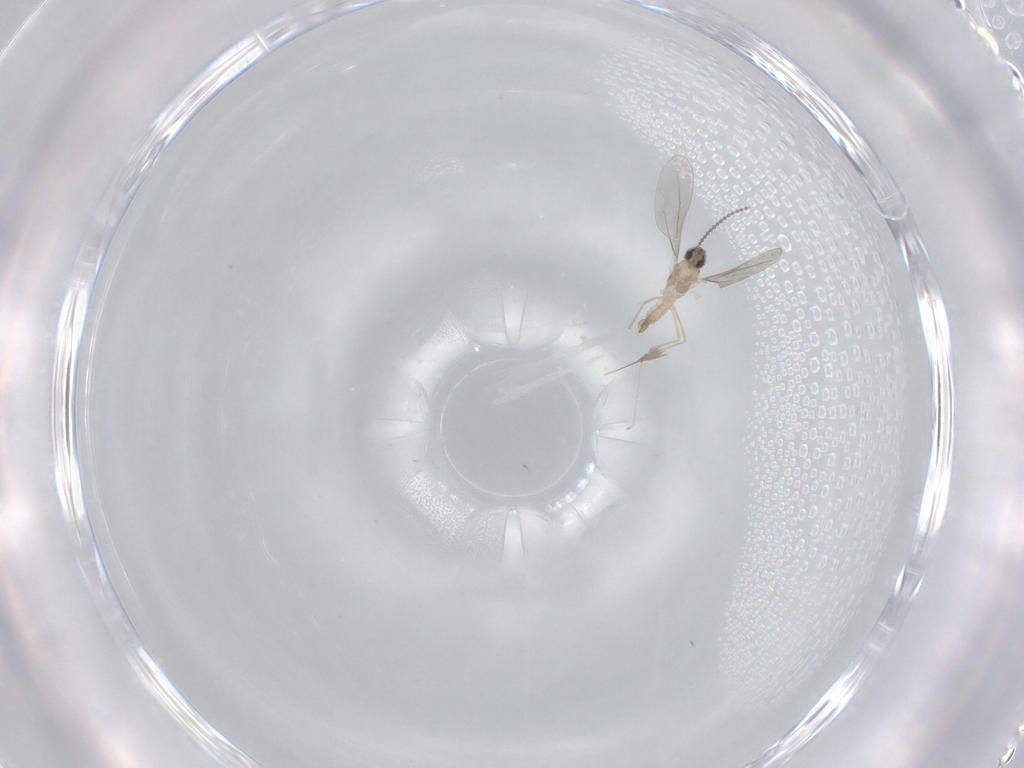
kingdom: Animalia
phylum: Arthropoda
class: Insecta
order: Diptera
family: Cecidomyiidae
